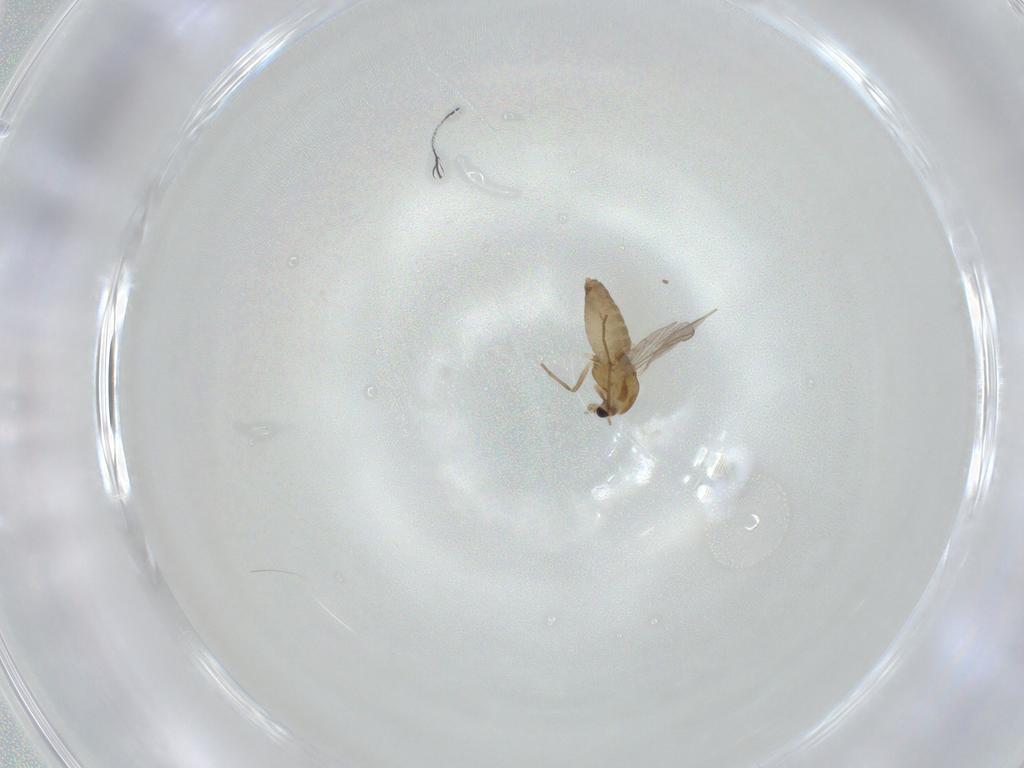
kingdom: Animalia
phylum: Arthropoda
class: Insecta
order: Diptera
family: Chironomidae
